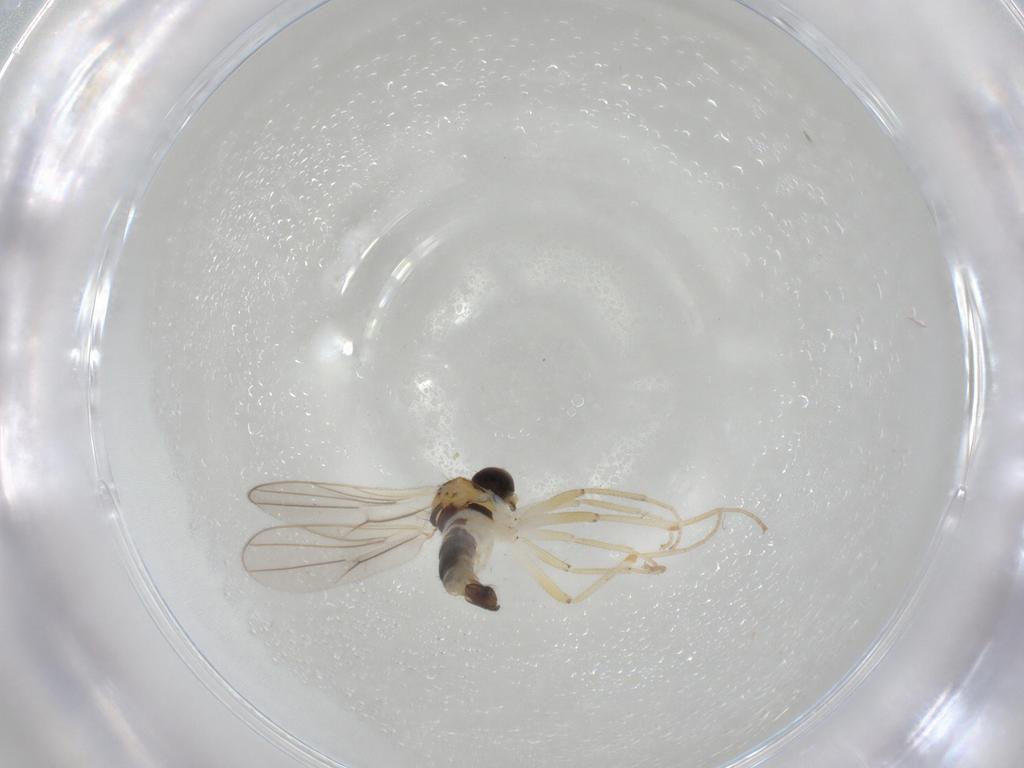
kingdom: Animalia
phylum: Arthropoda
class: Insecta
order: Diptera
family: Hybotidae
